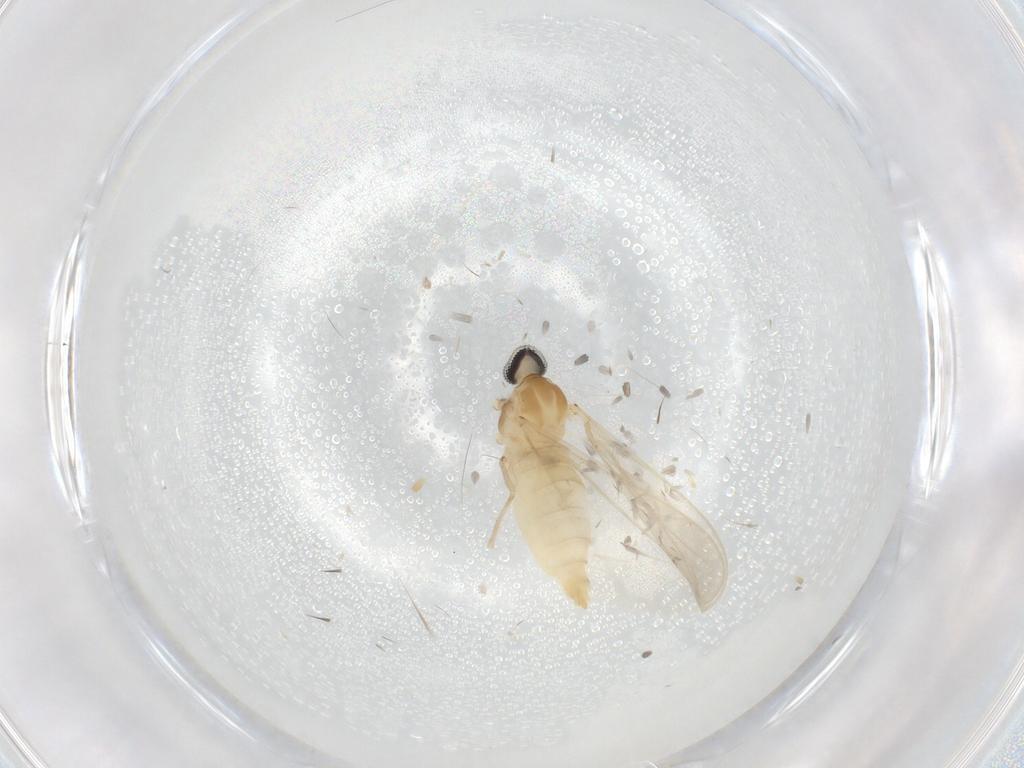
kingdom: Animalia
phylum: Arthropoda
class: Insecta
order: Diptera
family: Cecidomyiidae
